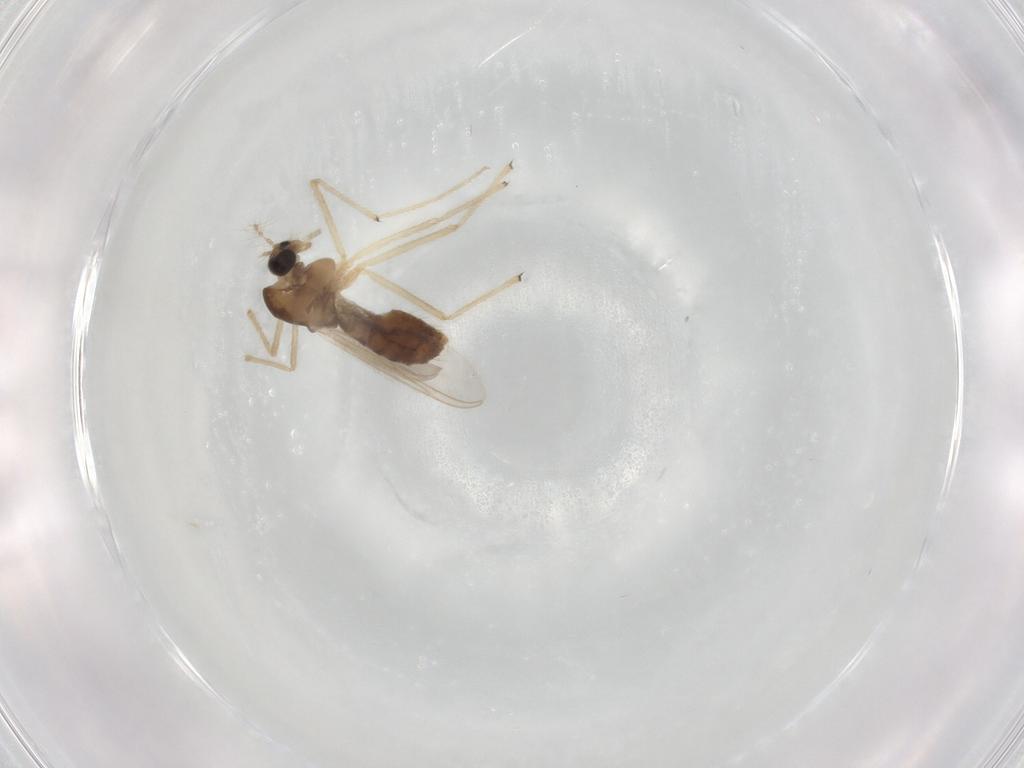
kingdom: Animalia
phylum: Arthropoda
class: Insecta
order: Diptera
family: Chironomidae
